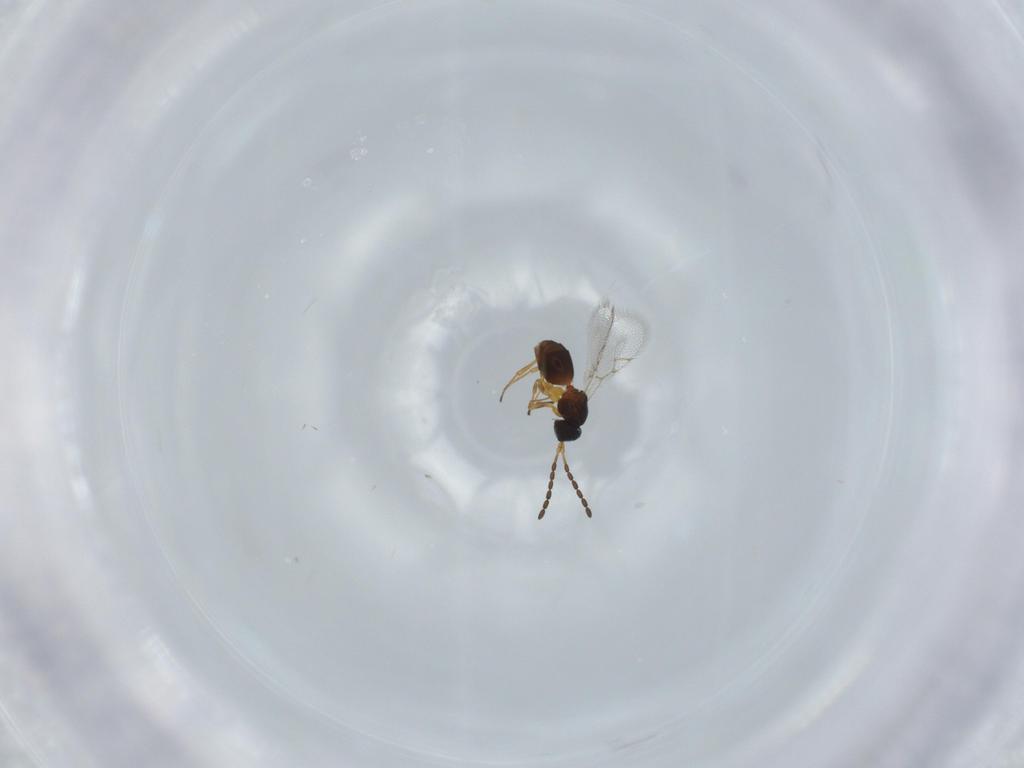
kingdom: Animalia
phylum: Arthropoda
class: Insecta
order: Hymenoptera
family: Figitidae
